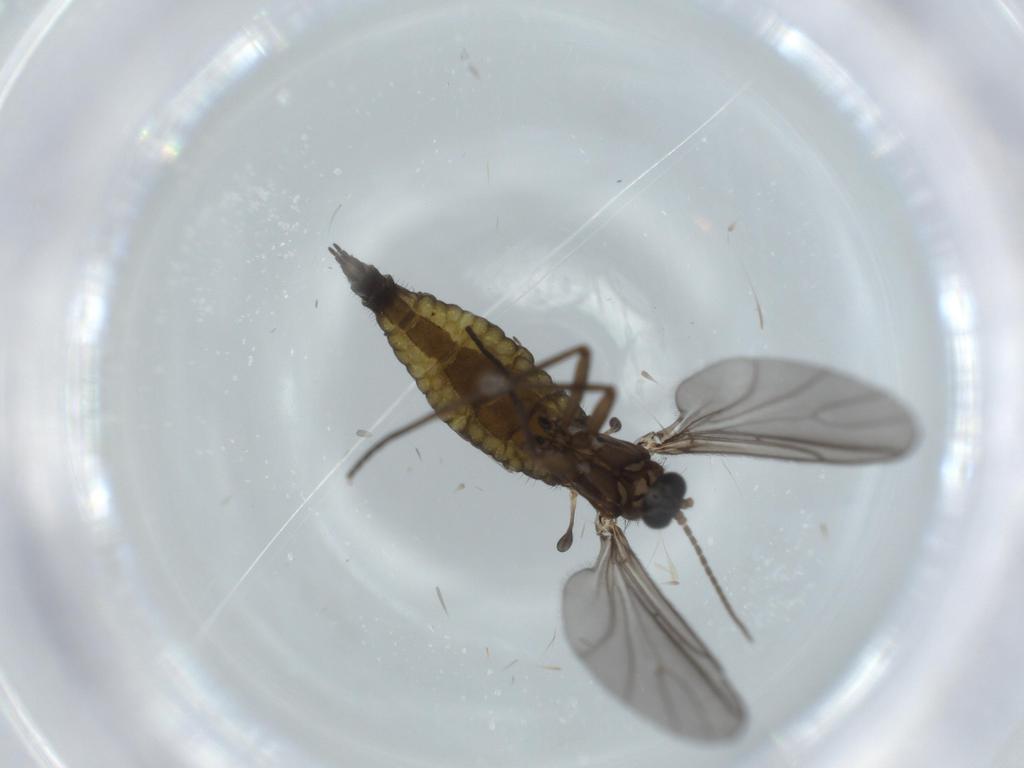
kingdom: Animalia
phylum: Arthropoda
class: Insecta
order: Diptera
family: Sciaridae
